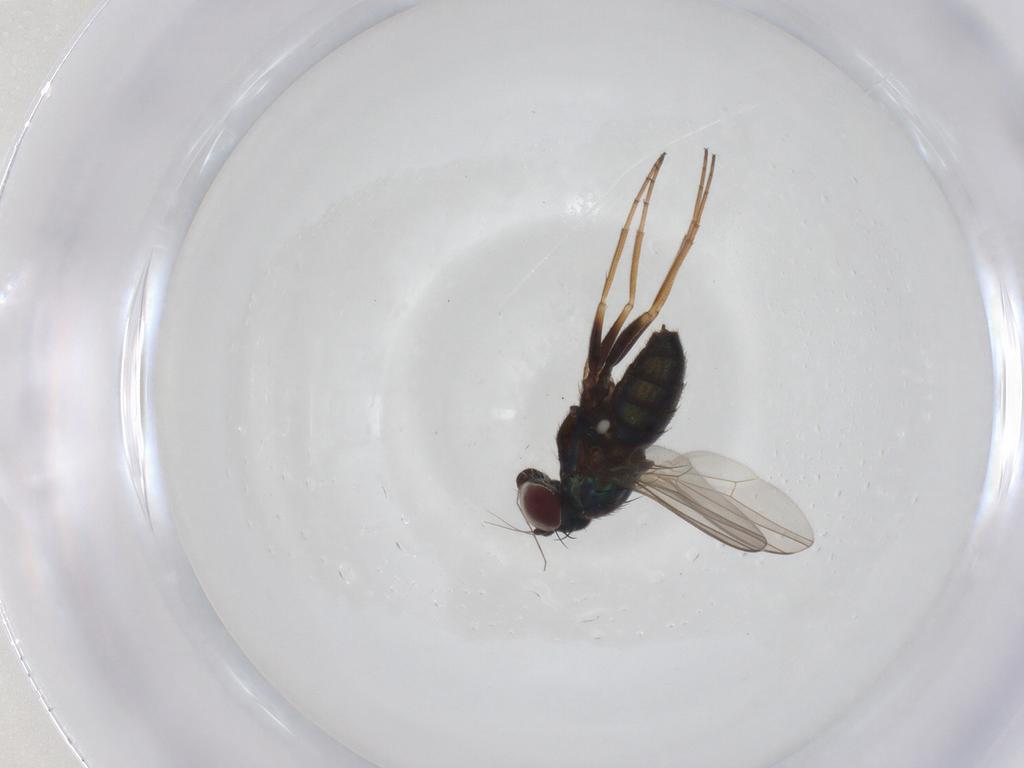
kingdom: Animalia
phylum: Arthropoda
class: Insecta
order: Diptera
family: Dolichopodidae
